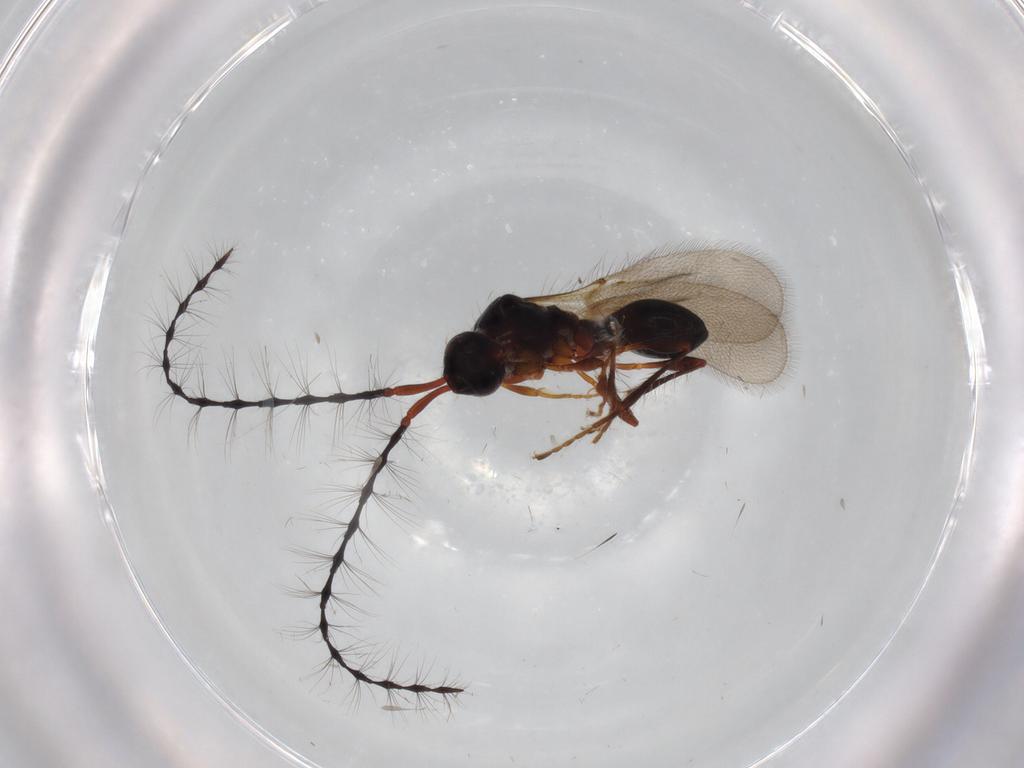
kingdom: Animalia
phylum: Arthropoda
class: Insecta
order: Hymenoptera
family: Diapriidae
